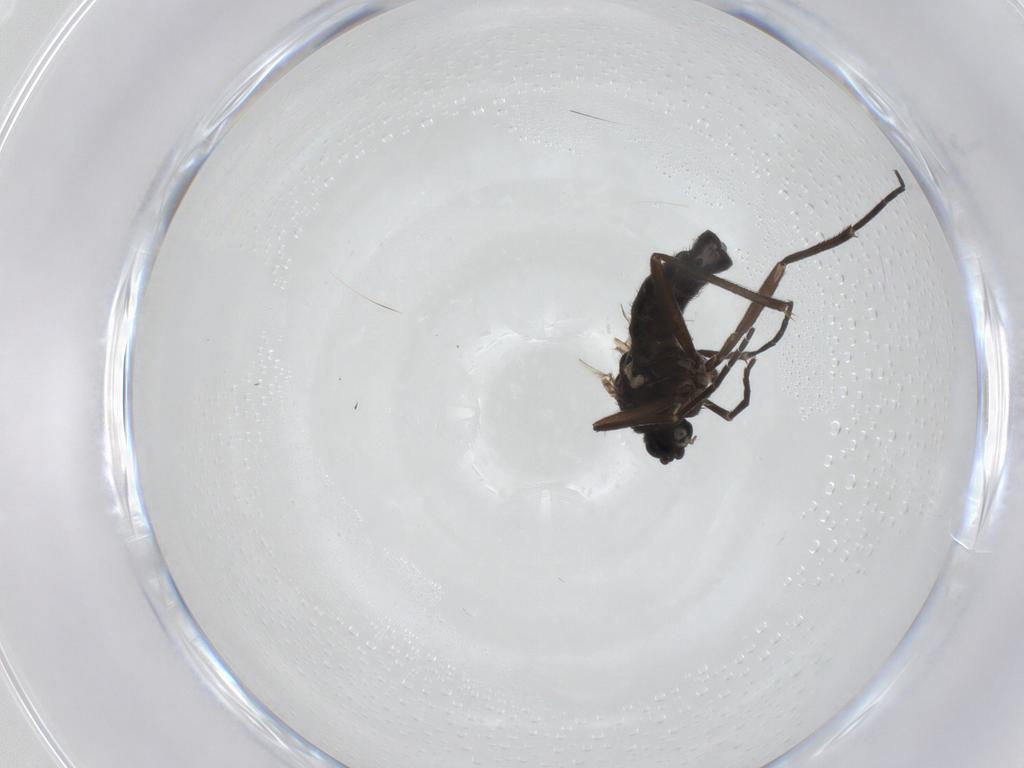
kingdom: Animalia
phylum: Arthropoda
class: Insecta
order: Diptera
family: Sciaridae
